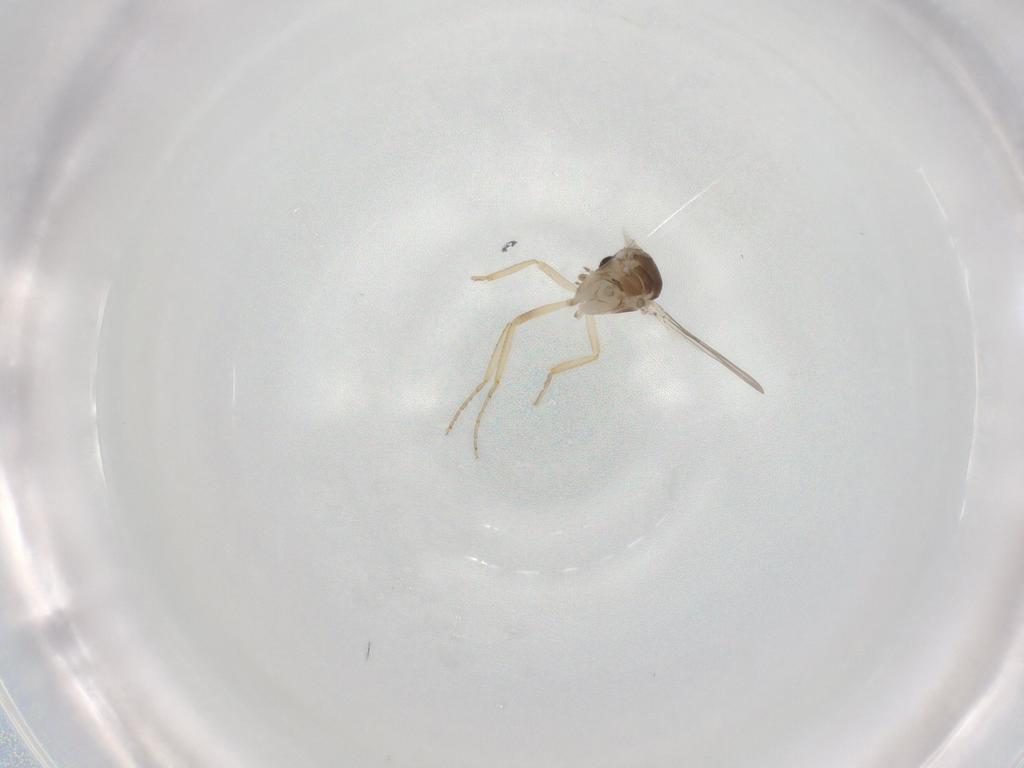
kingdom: Animalia
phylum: Arthropoda
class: Insecta
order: Diptera
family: Ceratopogonidae
